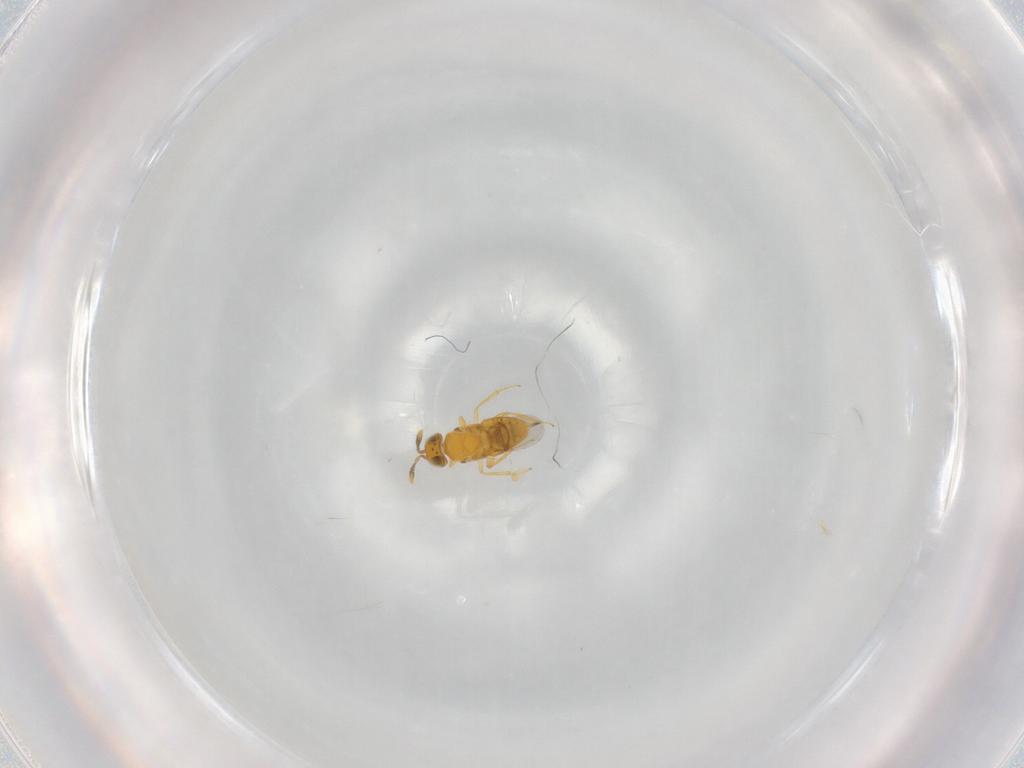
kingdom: Animalia
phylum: Arthropoda
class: Insecta
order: Hymenoptera
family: Encyrtidae
